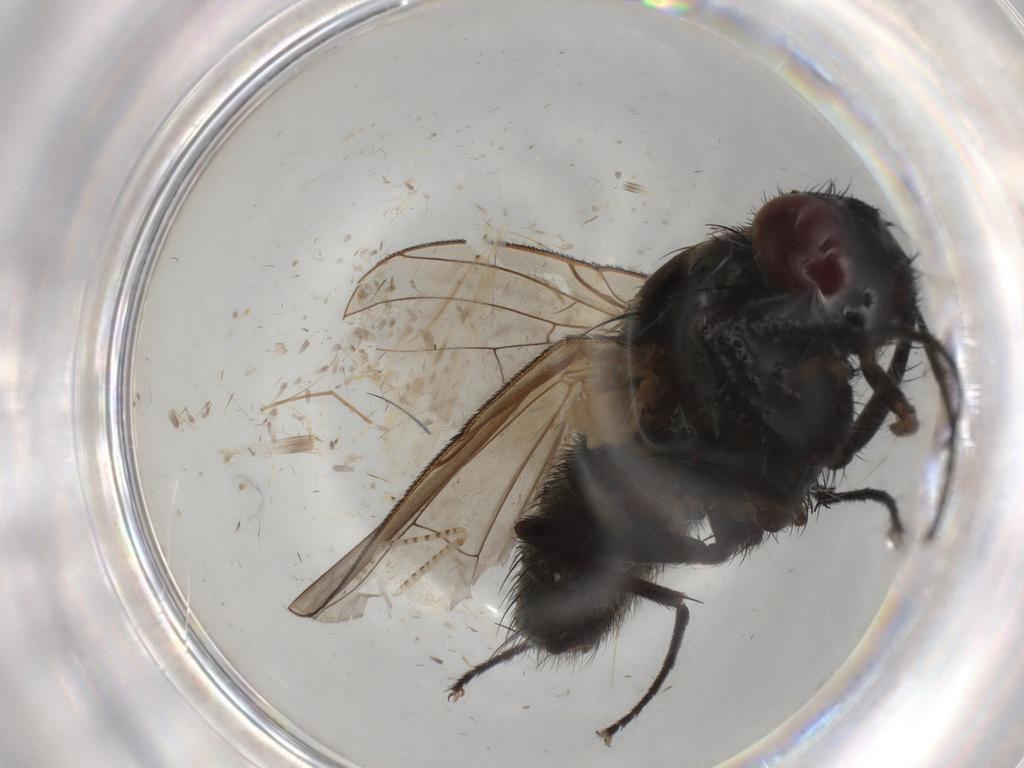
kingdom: Animalia
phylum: Arthropoda
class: Insecta
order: Diptera
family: Muscidae
